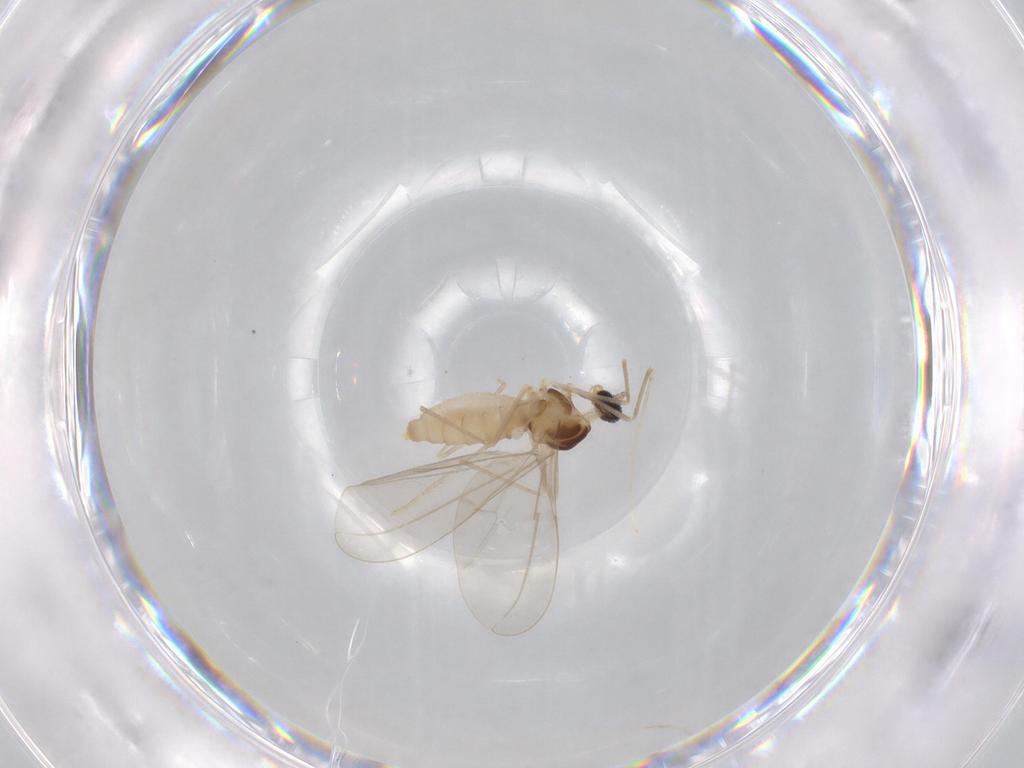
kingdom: Animalia
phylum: Arthropoda
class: Insecta
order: Diptera
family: Cecidomyiidae
